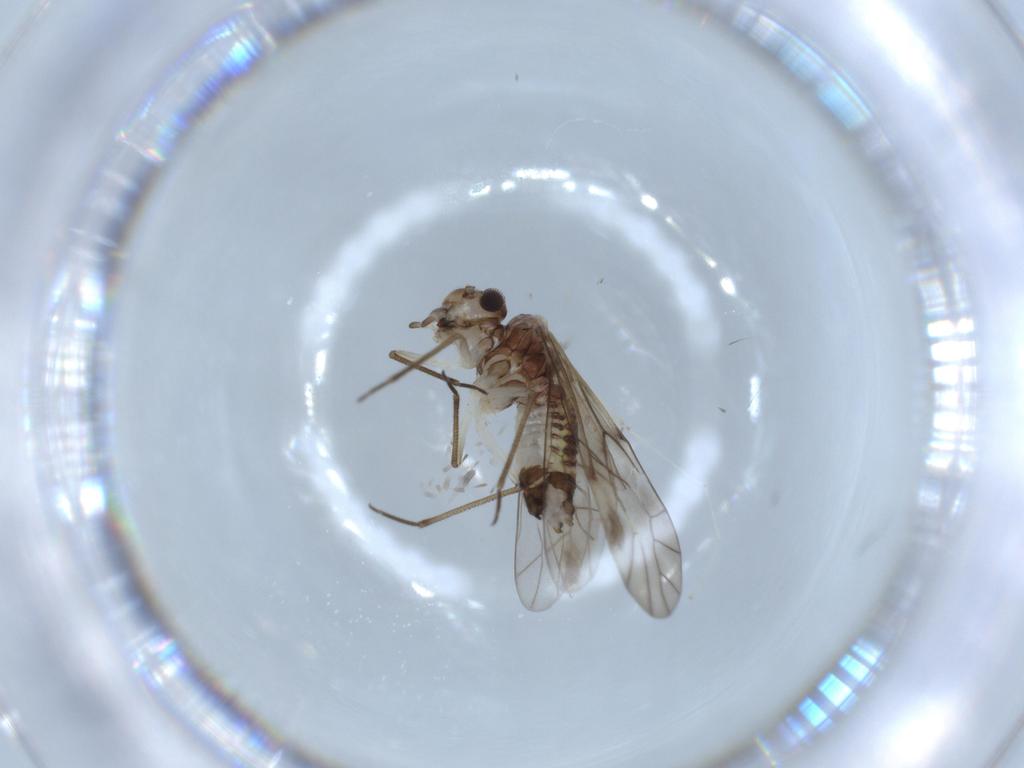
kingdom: Animalia
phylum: Arthropoda
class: Insecta
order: Psocodea
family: Psocidae
